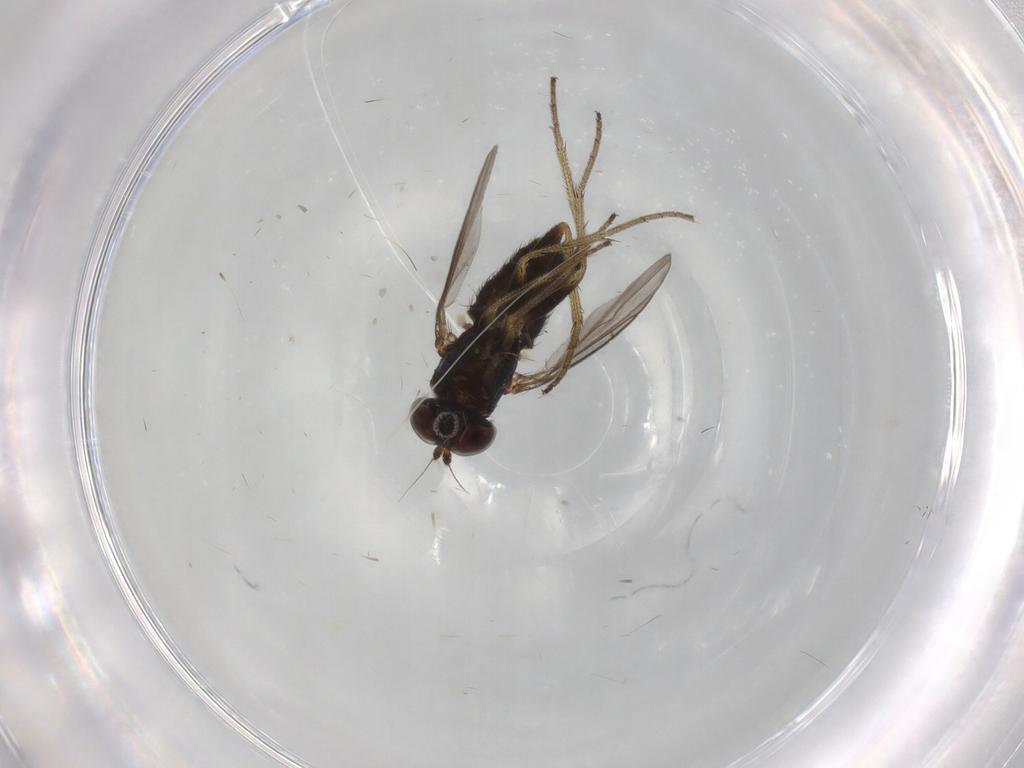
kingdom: Animalia
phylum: Arthropoda
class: Insecta
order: Diptera
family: Dolichopodidae
